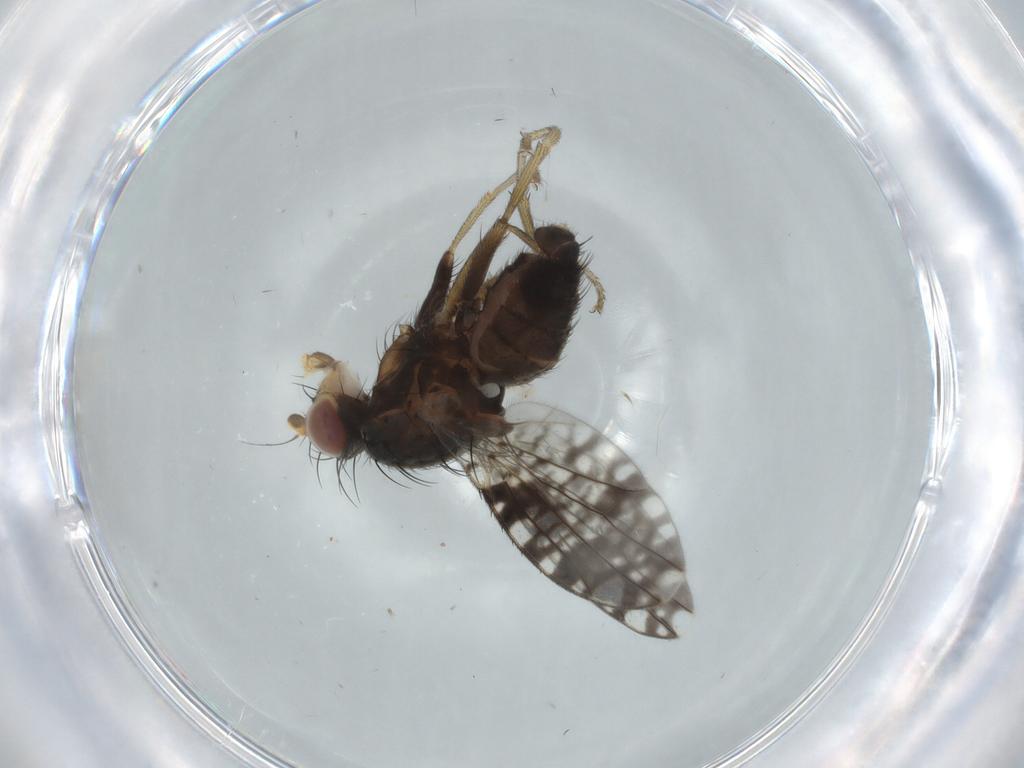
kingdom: Animalia
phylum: Arthropoda
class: Insecta
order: Diptera
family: Tephritidae
